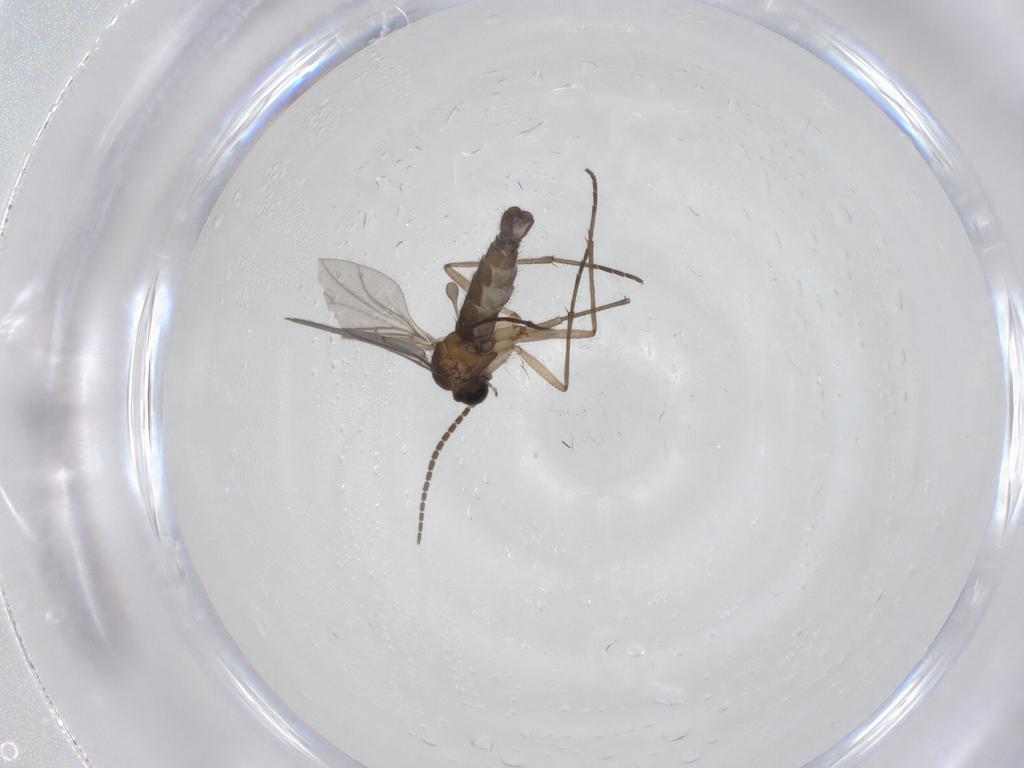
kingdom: Animalia
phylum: Arthropoda
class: Insecta
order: Diptera
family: Sciaridae
